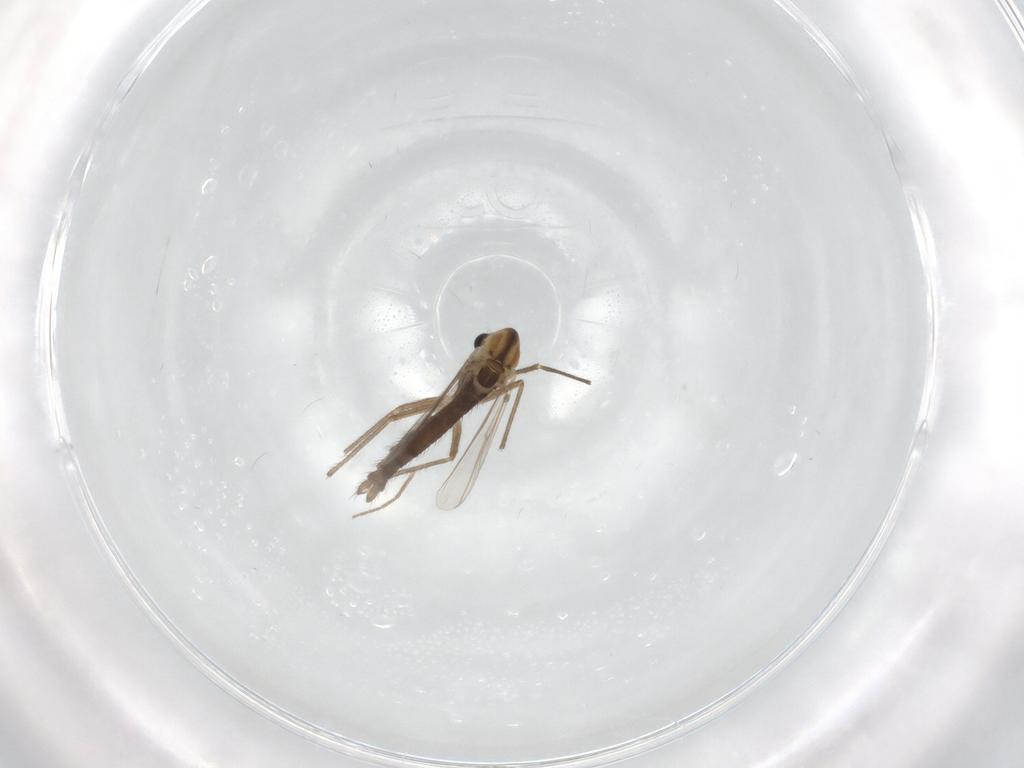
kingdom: Animalia
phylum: Arthropoda
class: Insecta
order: Diptera
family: Chironomidae
